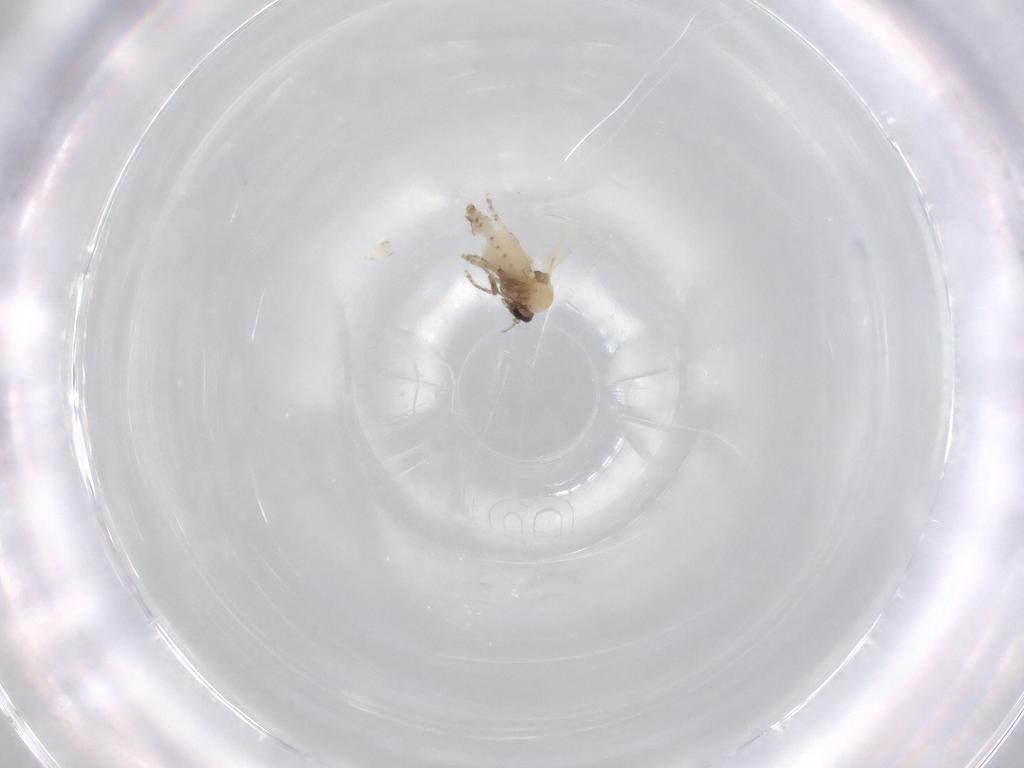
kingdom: Animalia
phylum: Arthropoda
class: Insecta
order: Diptera
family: Ceratopogonidae
